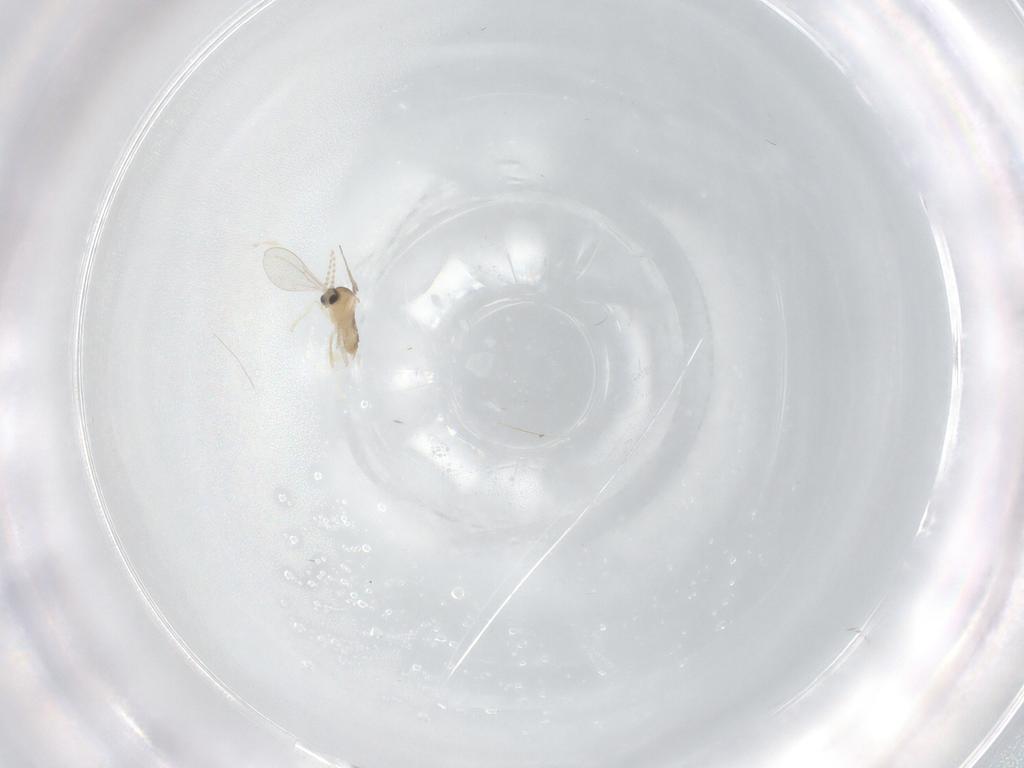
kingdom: Animalia
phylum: Arthropoda
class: Insecta
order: Diptera
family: Cecidomyiidae
